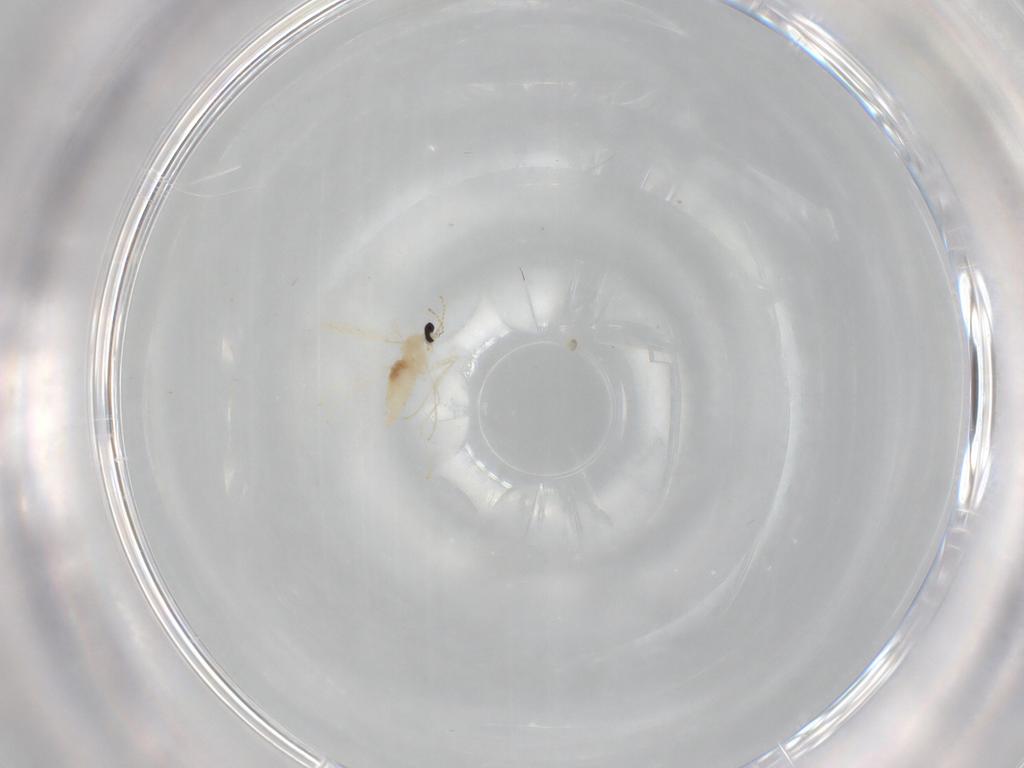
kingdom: Animalia
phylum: Arthropoda
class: Insecta
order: Diptera
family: Cecidomyiidae
